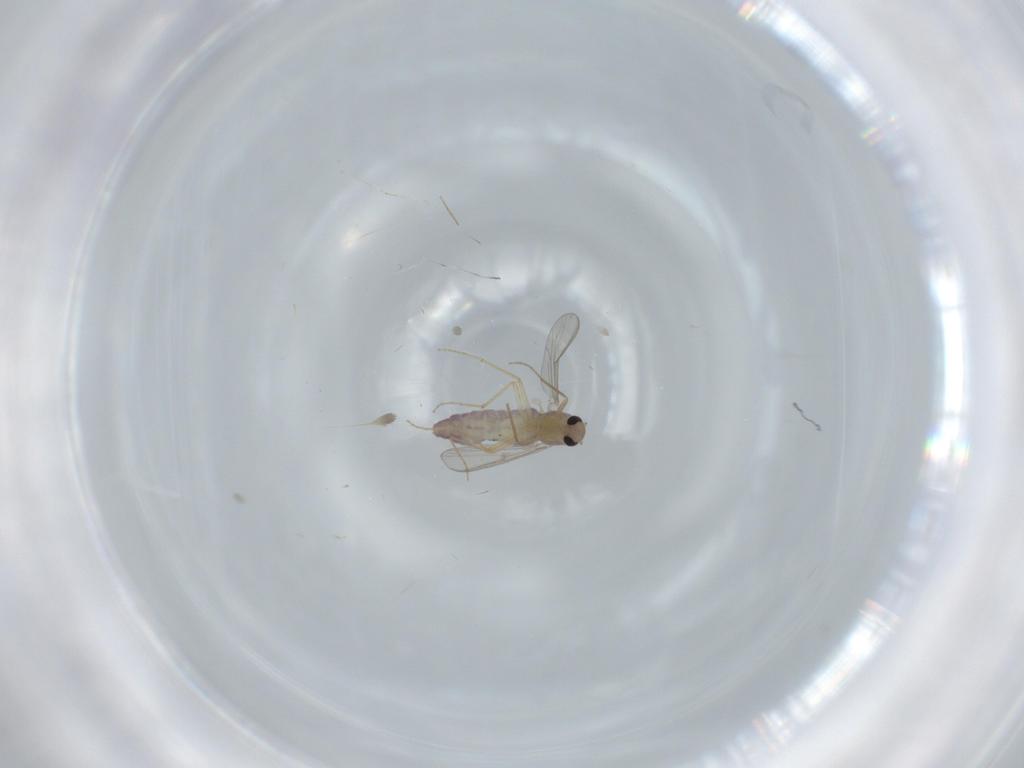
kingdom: Animalia
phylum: Arthropoda
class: Insecta
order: Diptera
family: Chironomidae
